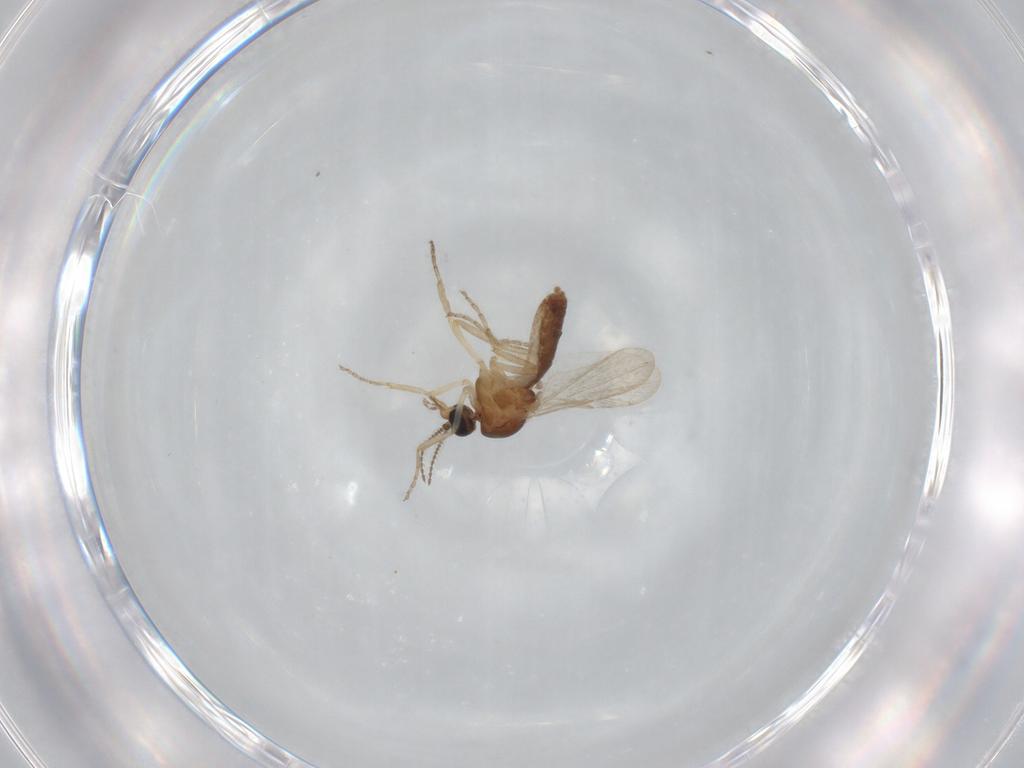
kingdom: Animalia
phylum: Arthropoda
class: Insecta
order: Diptera
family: Ceratopogonidae
